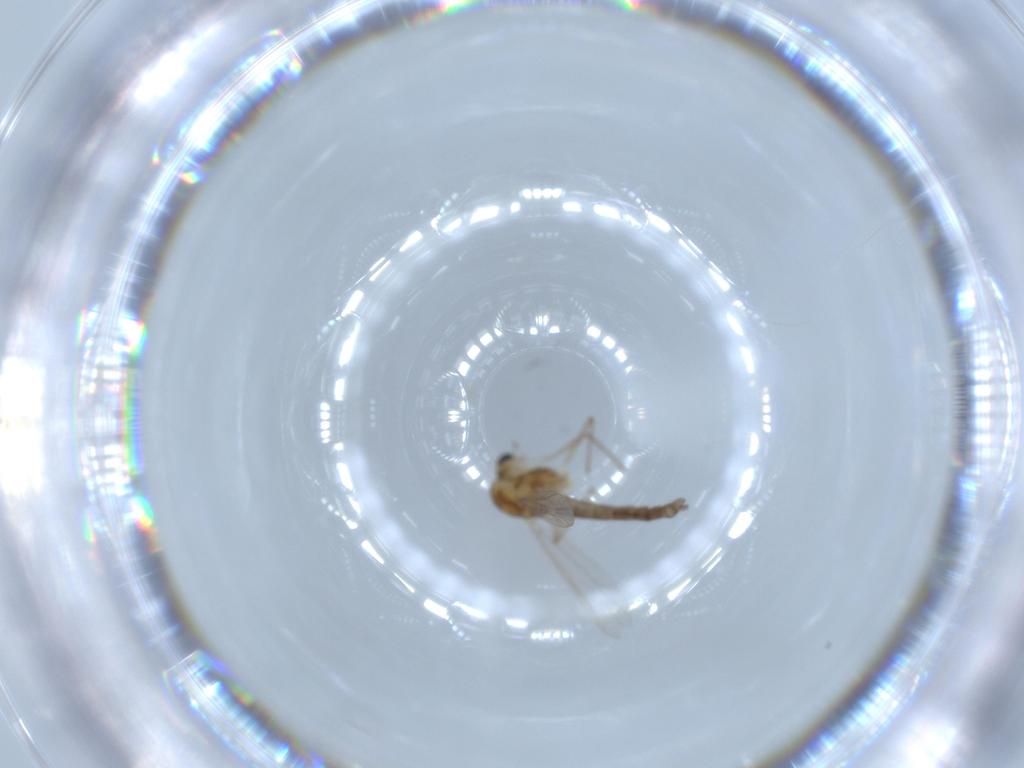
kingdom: Animalia
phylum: Arthropoda
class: Insecta
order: Diptera
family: Chironomidae
